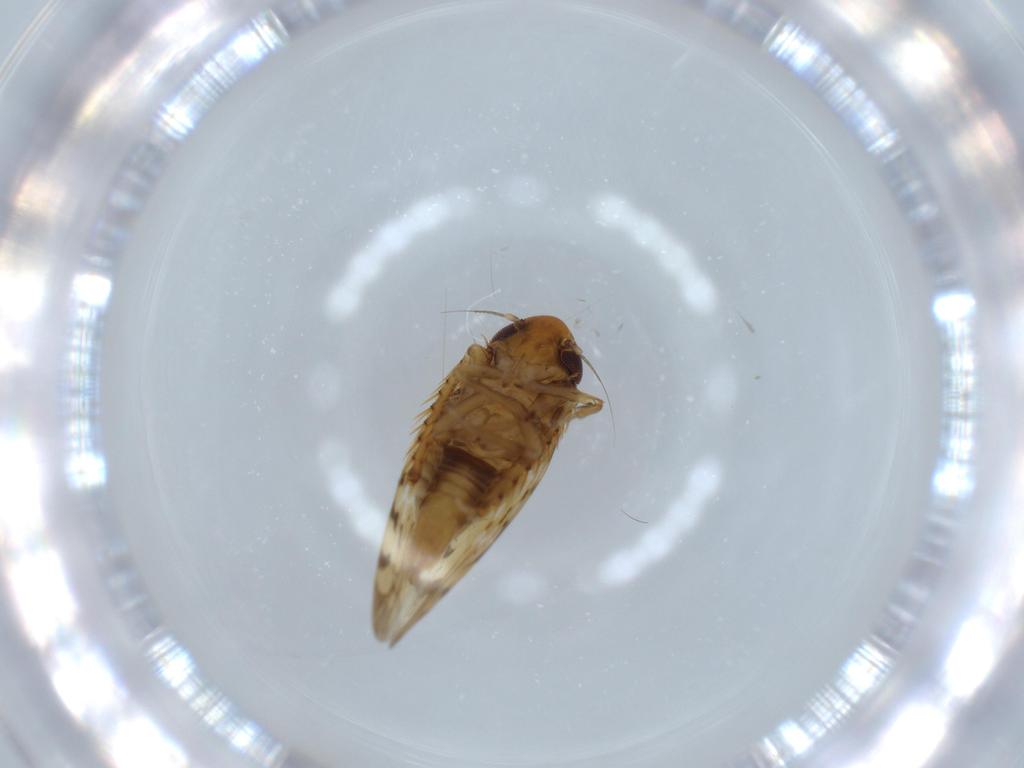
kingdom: Animalia
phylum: Arthropoda
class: Insecta
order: Hemiptera
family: Cicadellidae
